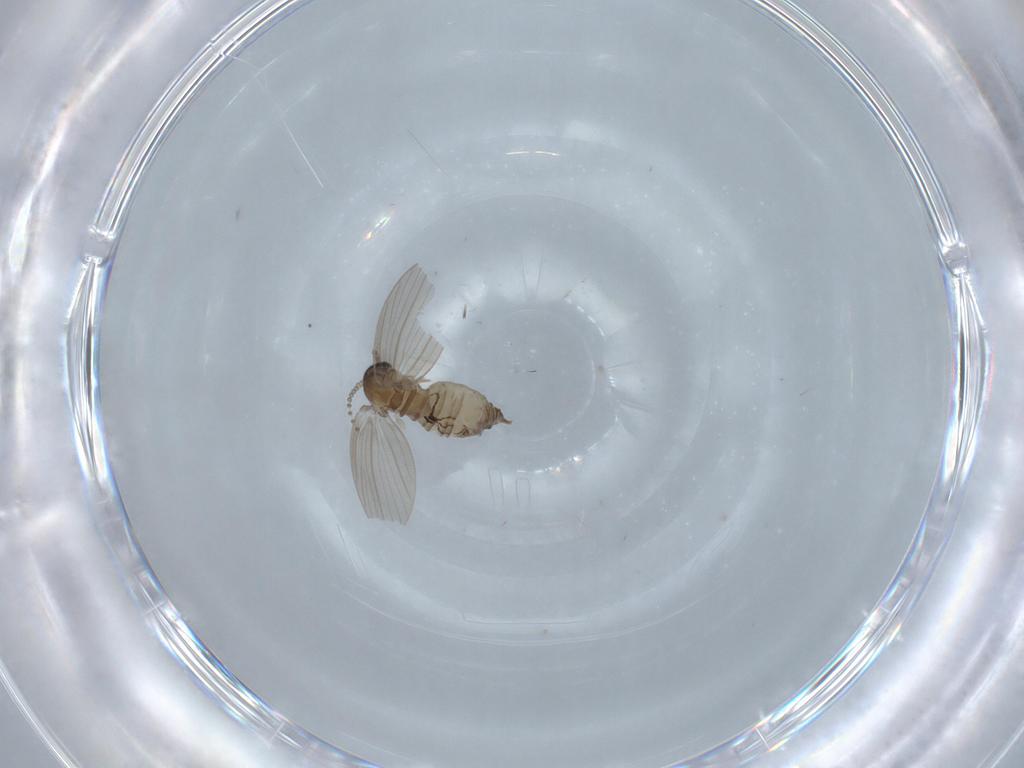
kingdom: Animalia
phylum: Arthropoda
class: Insecta
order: Diptera
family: Psychodidae
